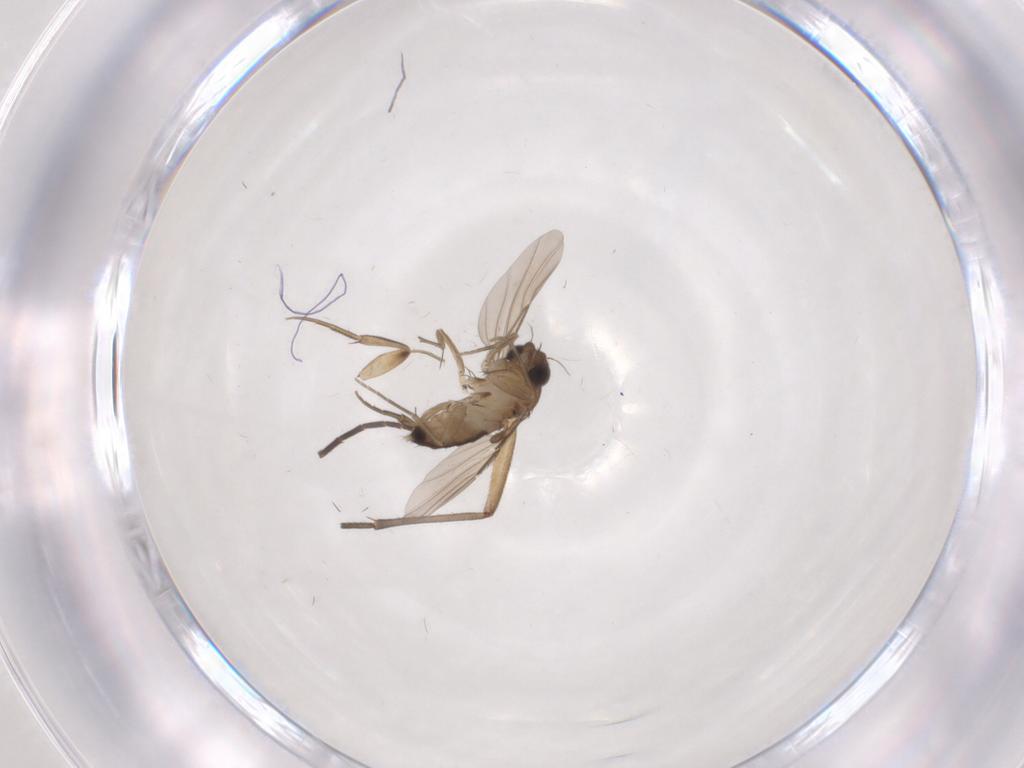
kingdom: Animalia
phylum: Arthropoda
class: Insecta
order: Diptera
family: Phoridae
